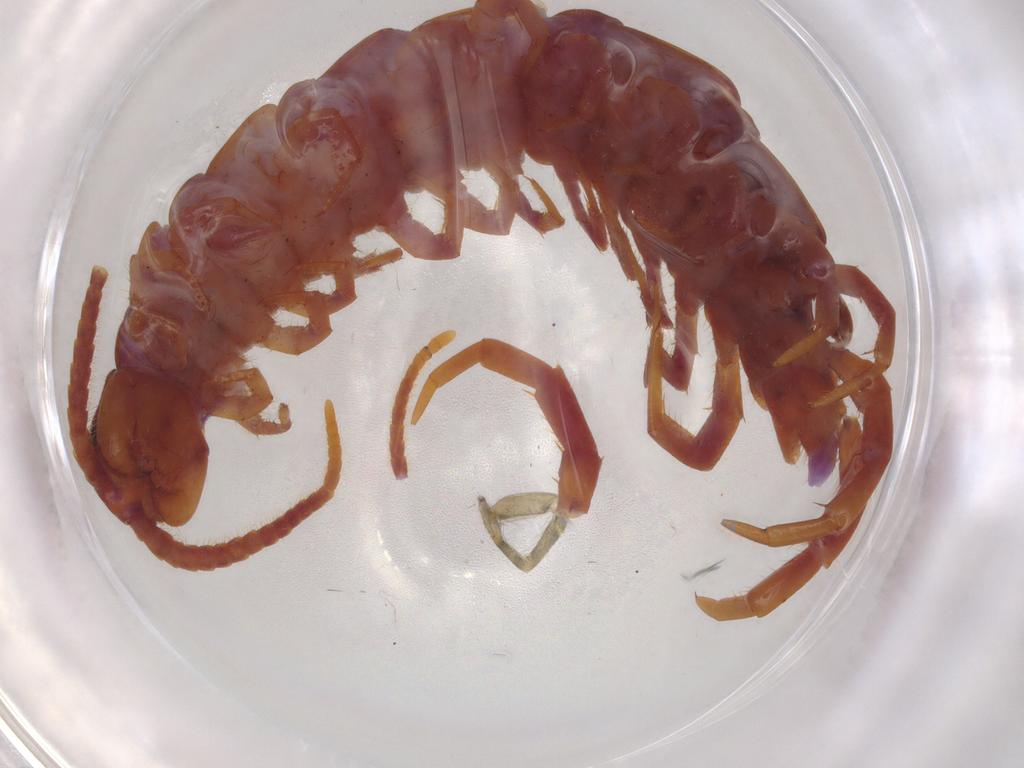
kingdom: Animalia
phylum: Arthropoda
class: Chilopoda
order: Lithobiomorpha
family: Lithobiidae
